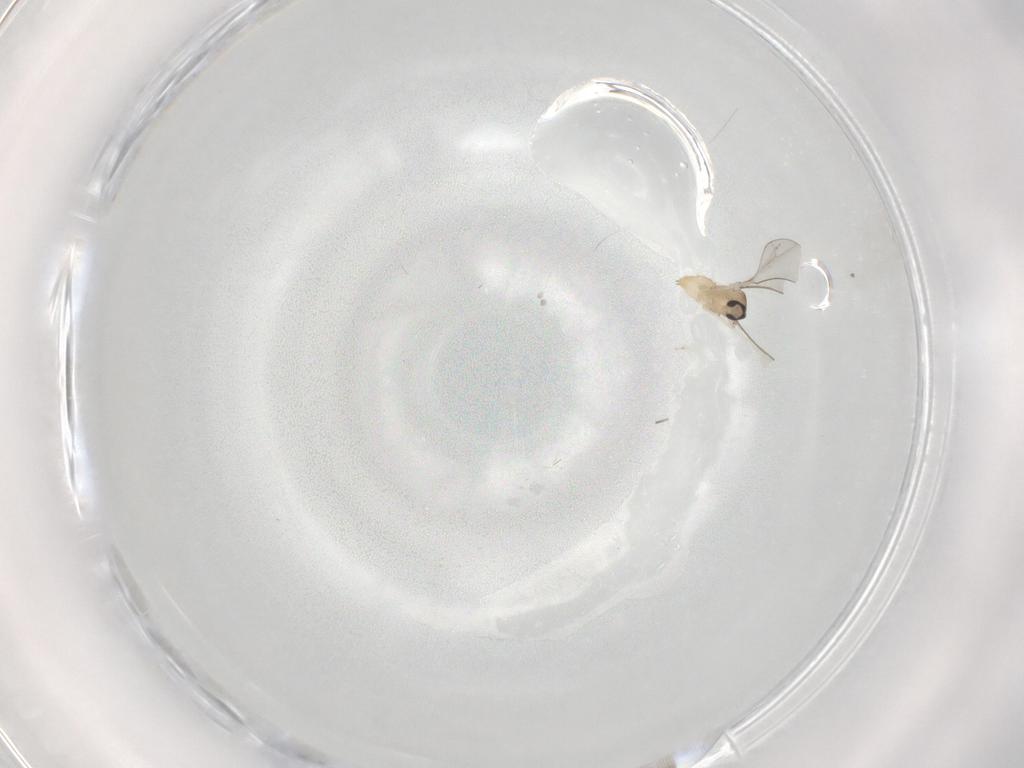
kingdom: Animalia
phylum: Arthropoda
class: Insecta
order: Diptera
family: Cecidomyiidae
